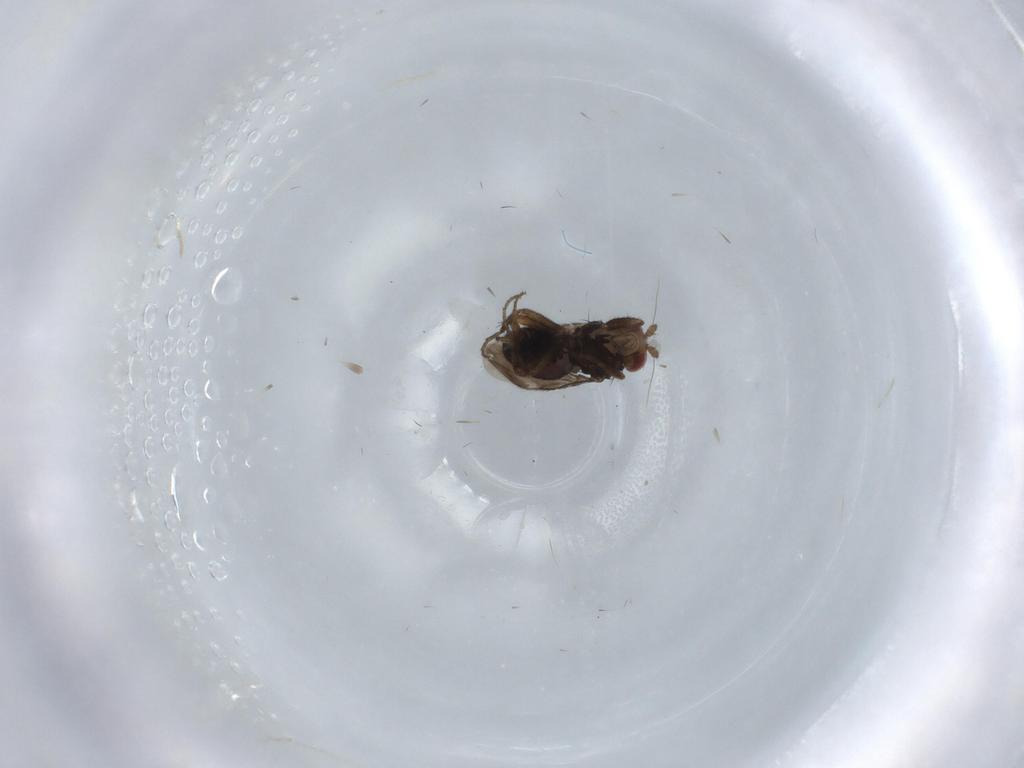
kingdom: Animalia
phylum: Arthropoda
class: Insecta
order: Diptera
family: Sphaeroceridae
